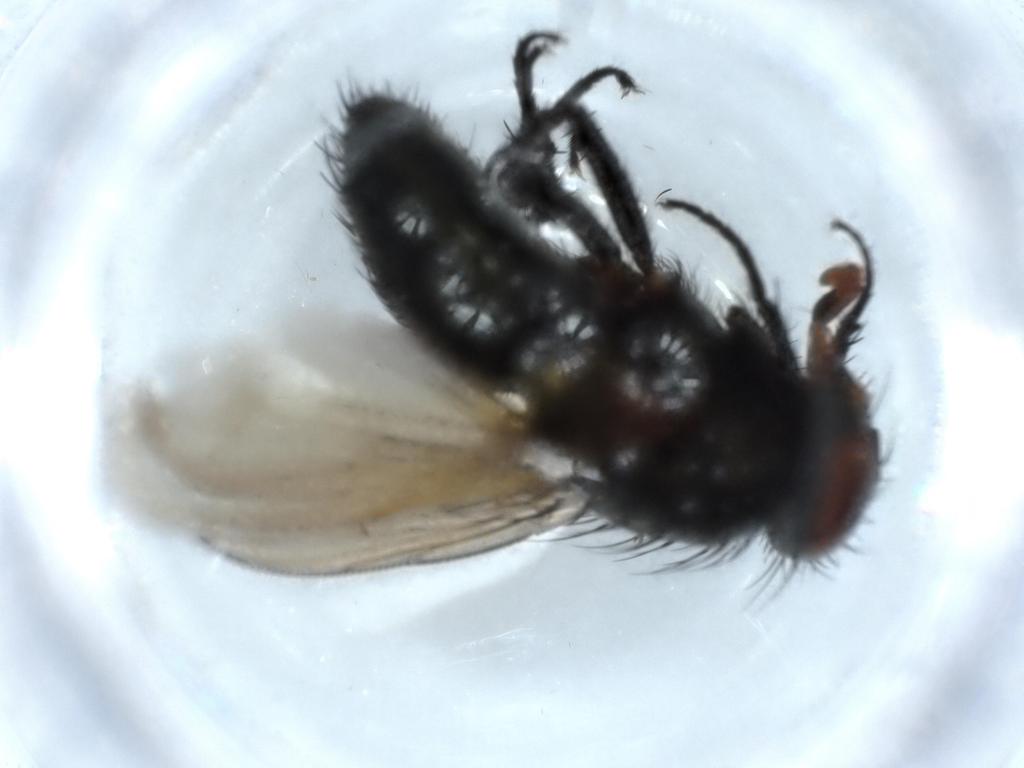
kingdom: Animalia
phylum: Arthropoda
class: Insecta
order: Diptera
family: Polleniidae
